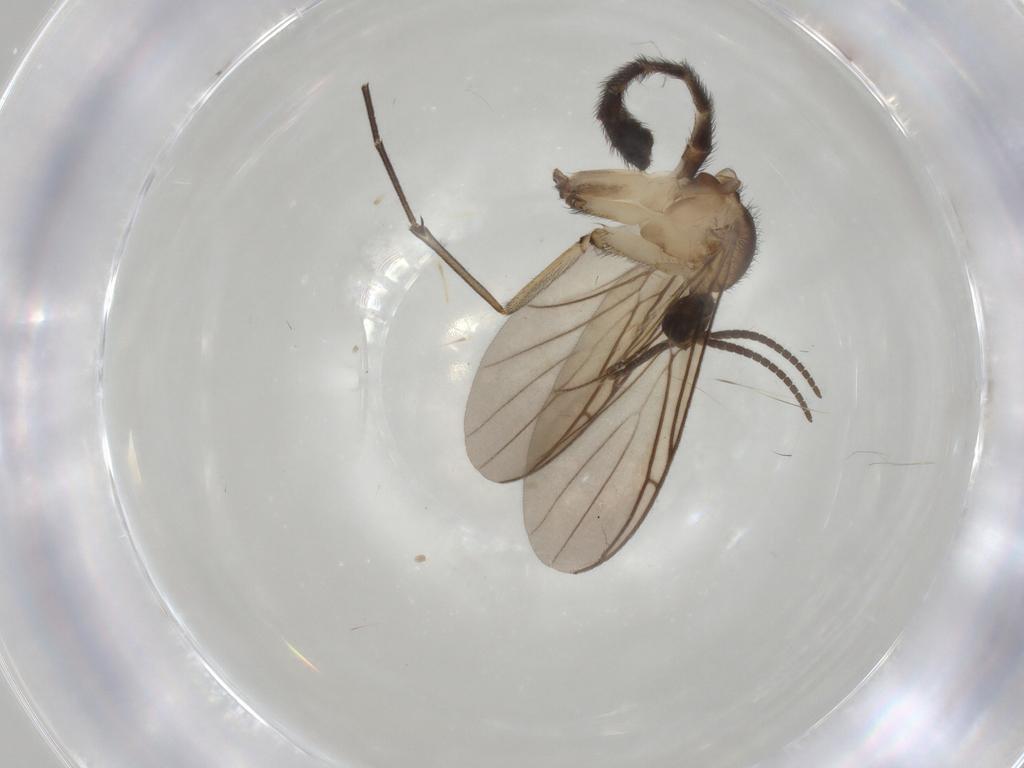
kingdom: Animalia
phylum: Arthropoda
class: Insecta
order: Diptera
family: Keroplatidae
